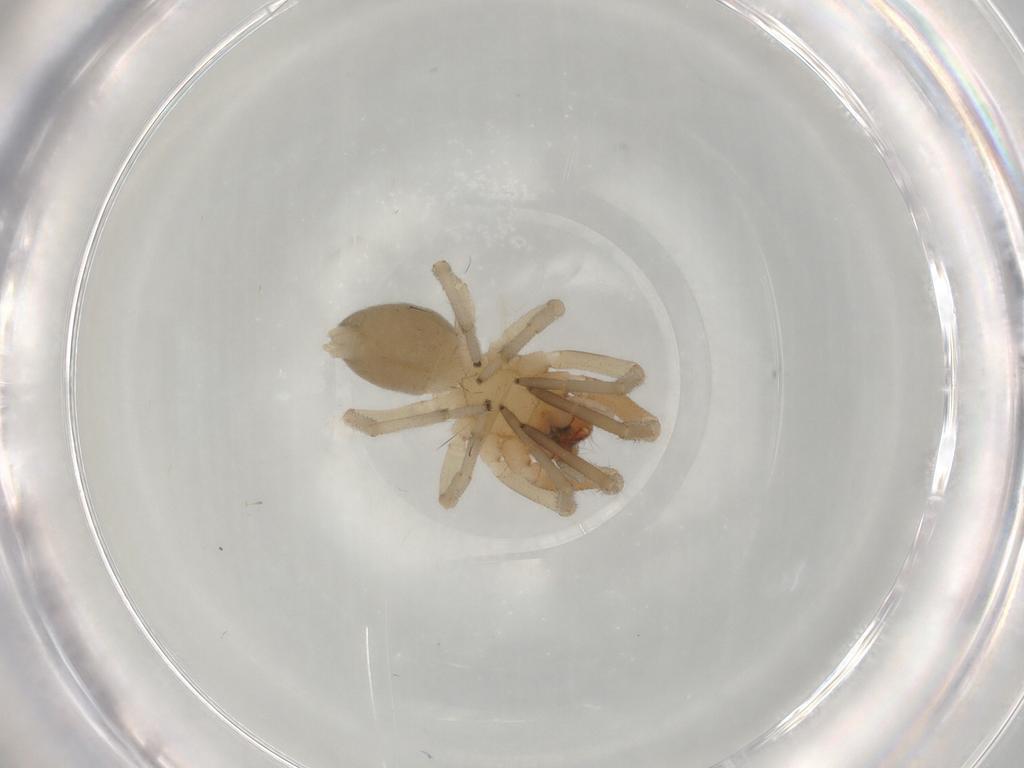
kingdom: Animalia
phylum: Arthropoda
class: Arachnida
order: Araneae
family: Trachelidae
